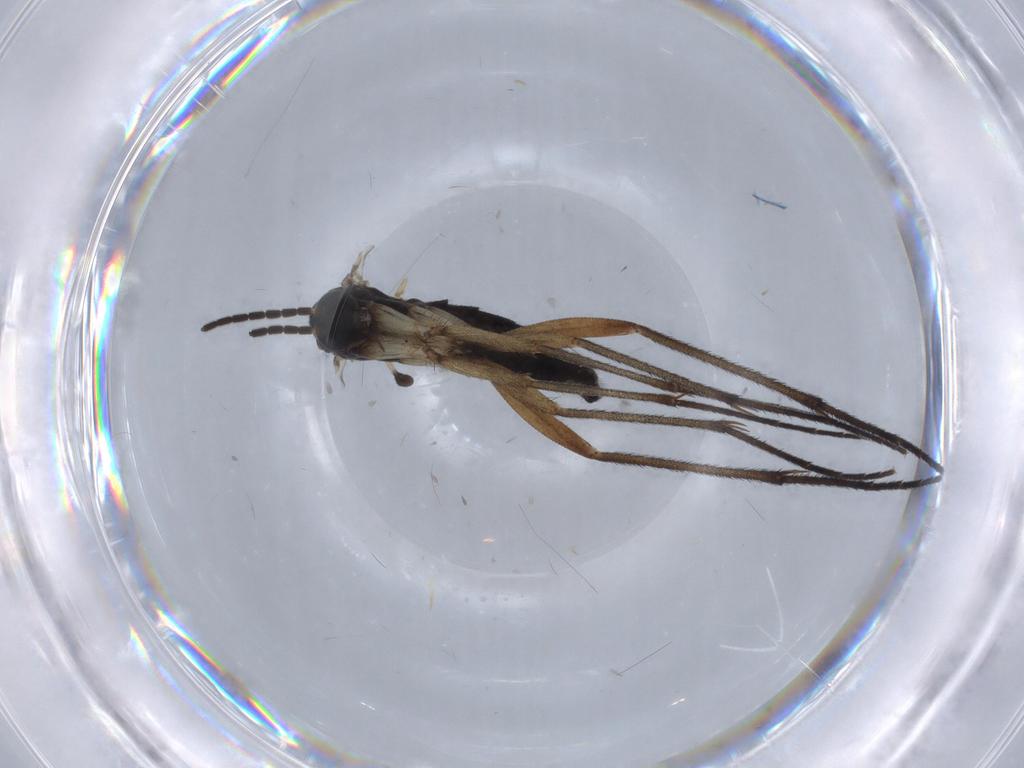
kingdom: Animalia
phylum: Arthropoda
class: Insecta
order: Diptera
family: Sciaridae
